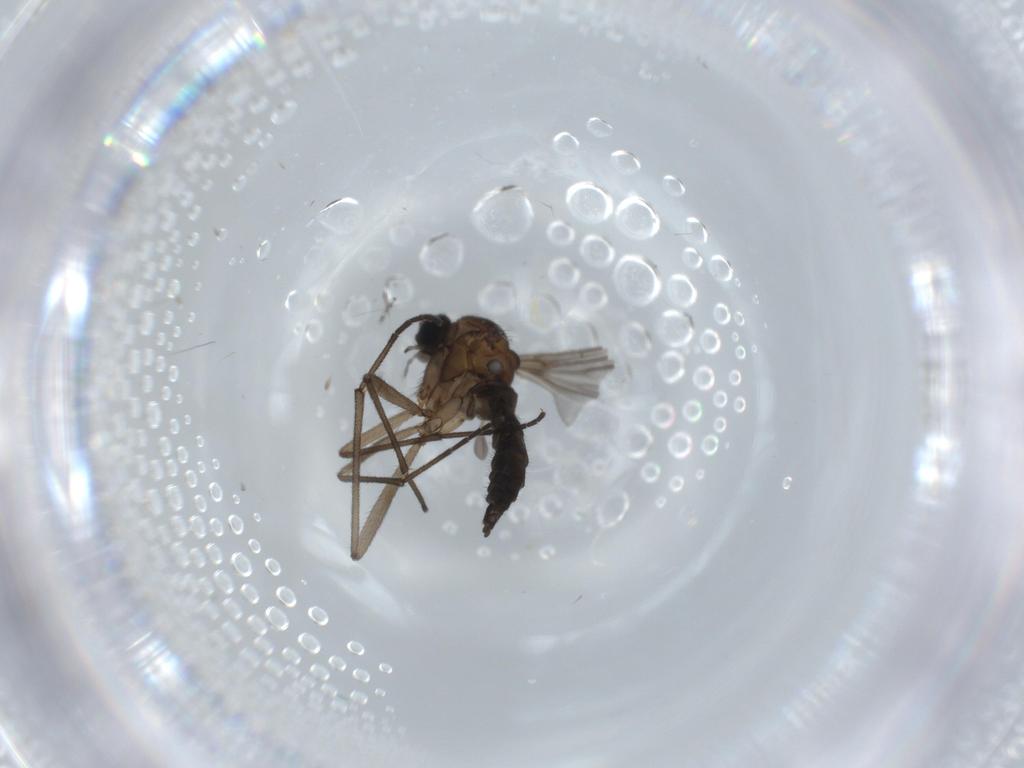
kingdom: Animalia
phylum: Arthropoda
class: Insecta
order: Diptera
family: Sciaridae
